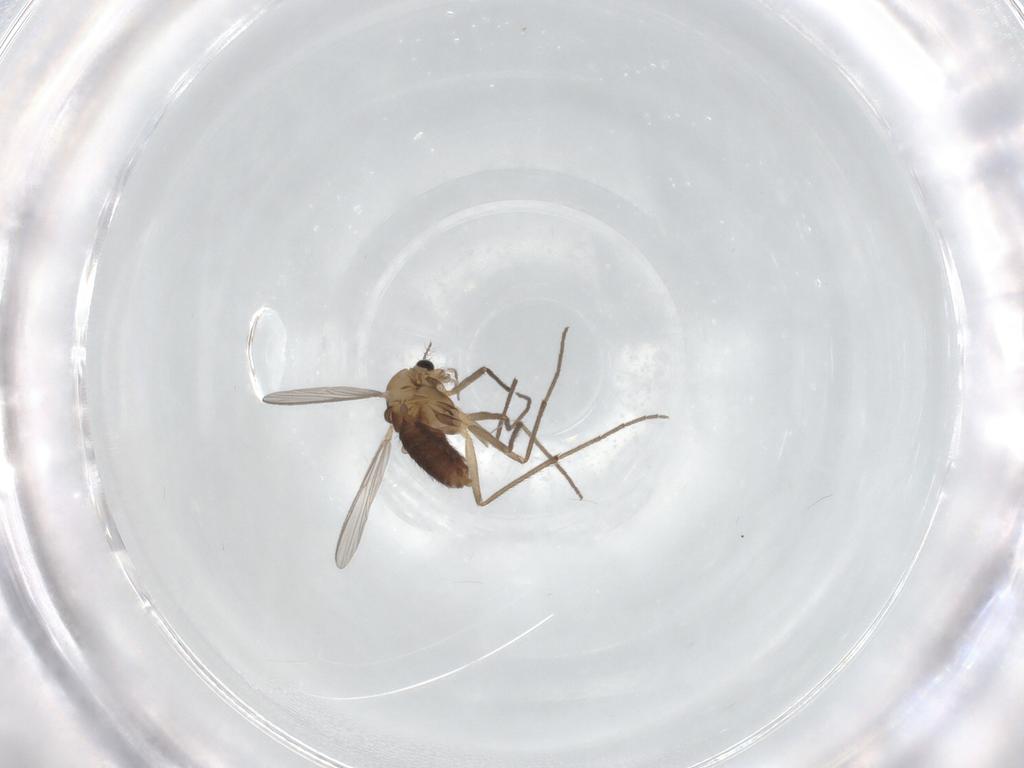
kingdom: Animalia
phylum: Arthropoda
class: Insecta
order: Diptera
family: Chironomidae
